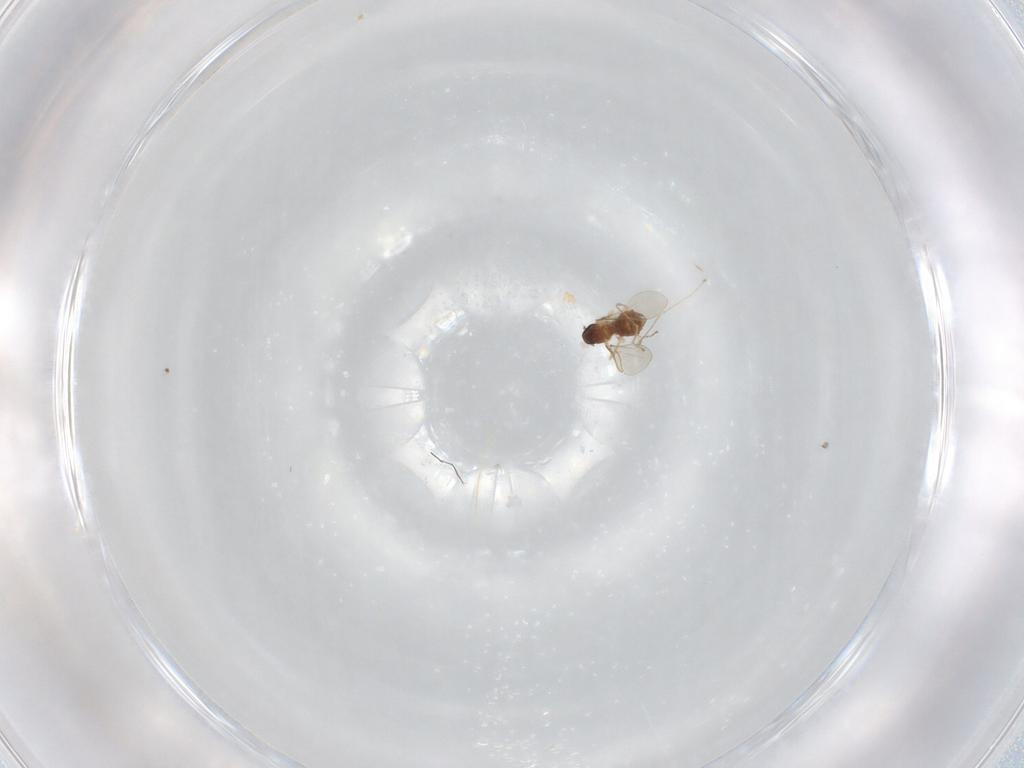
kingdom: Animalia
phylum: Arthropoda
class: Insecta
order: Diptera
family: Cecidomyiidae
